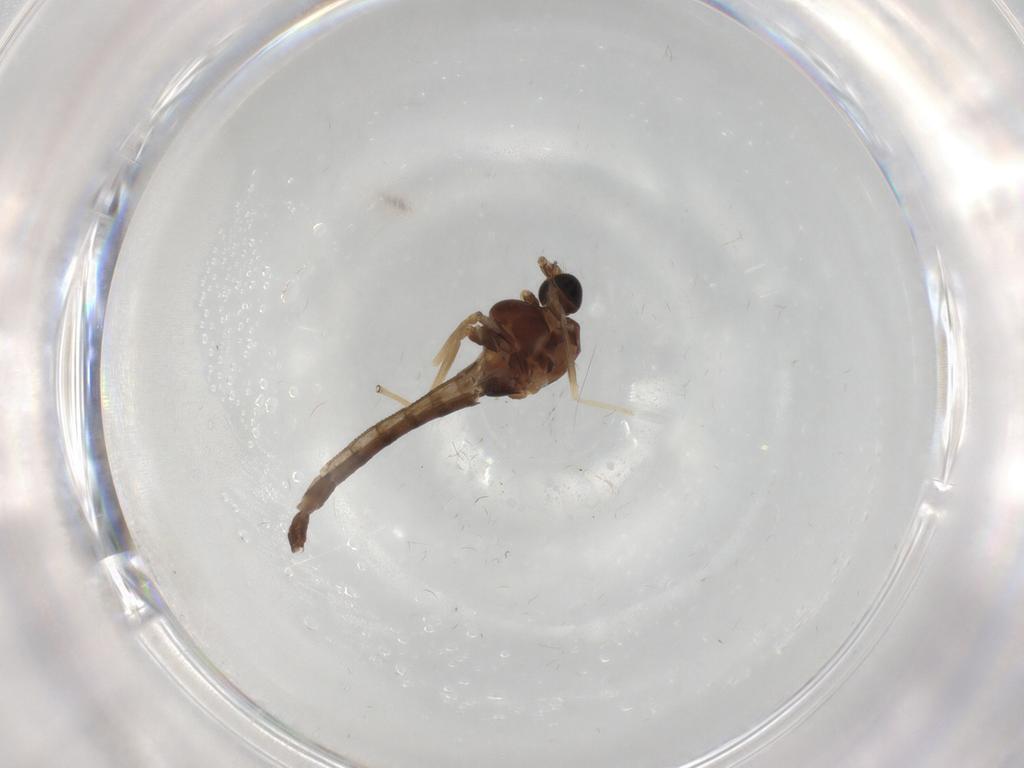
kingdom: Animalia
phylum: Arthropoda
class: Insecta
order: Diptera
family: Chironomidae
